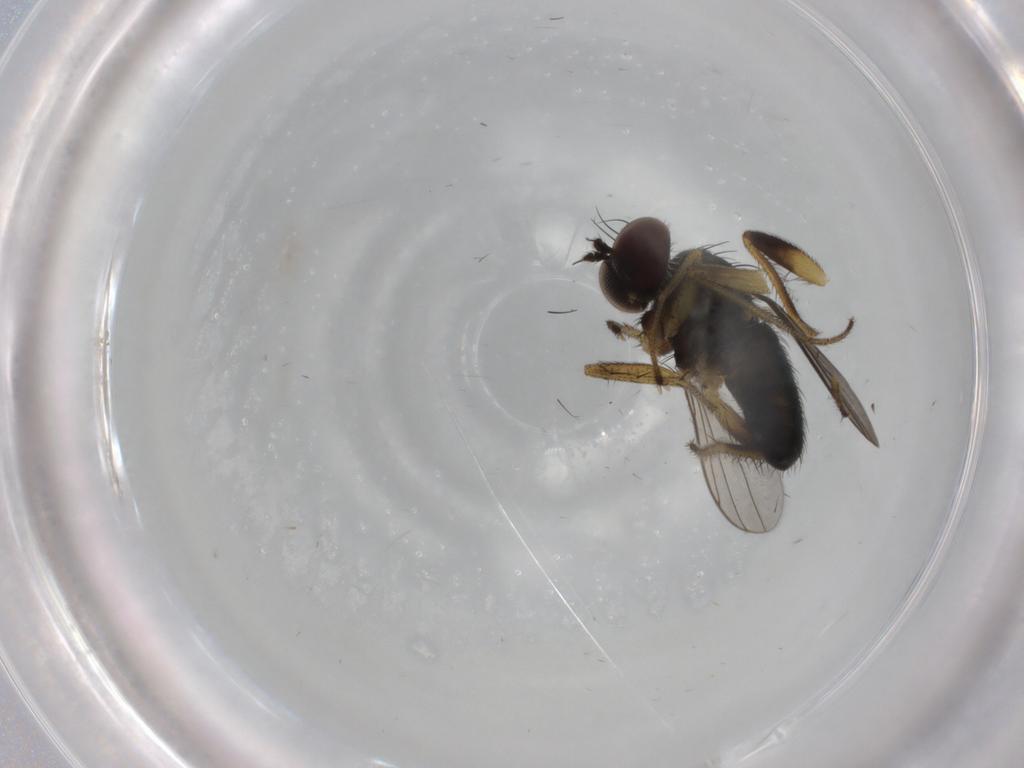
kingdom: Animalia
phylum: Arthropoda
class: Insecta
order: Diptera
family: Dolichopodidae
